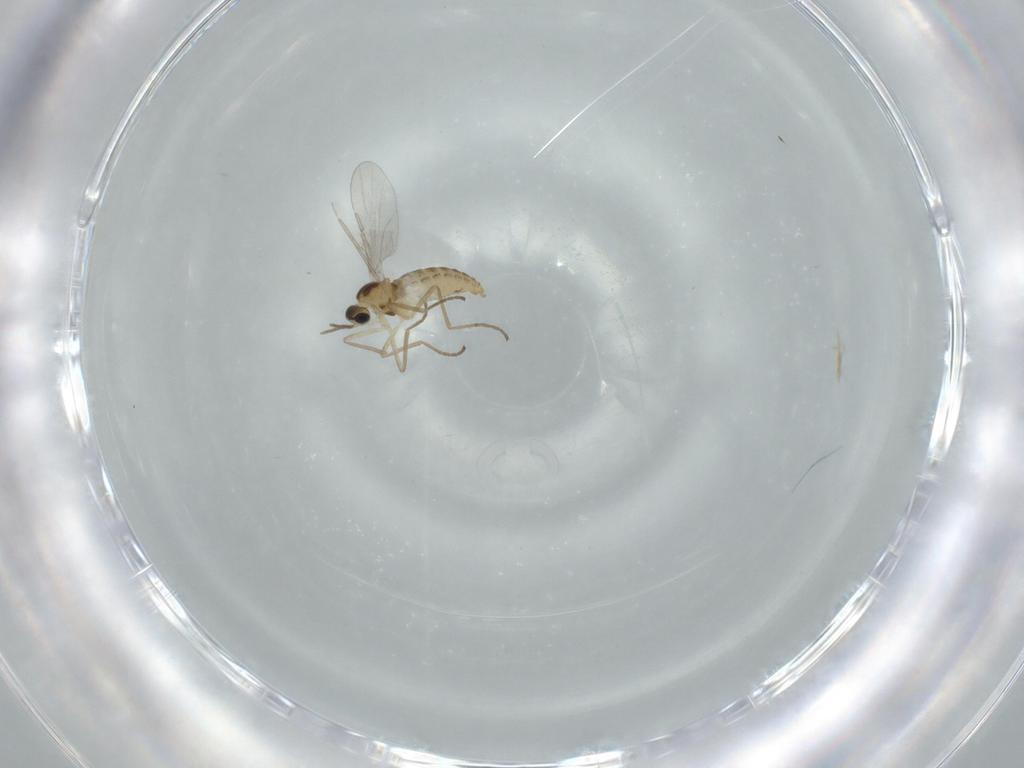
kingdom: Animalia
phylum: Arthropoda
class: Insecta
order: Diptera
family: Cecidomyiidae
